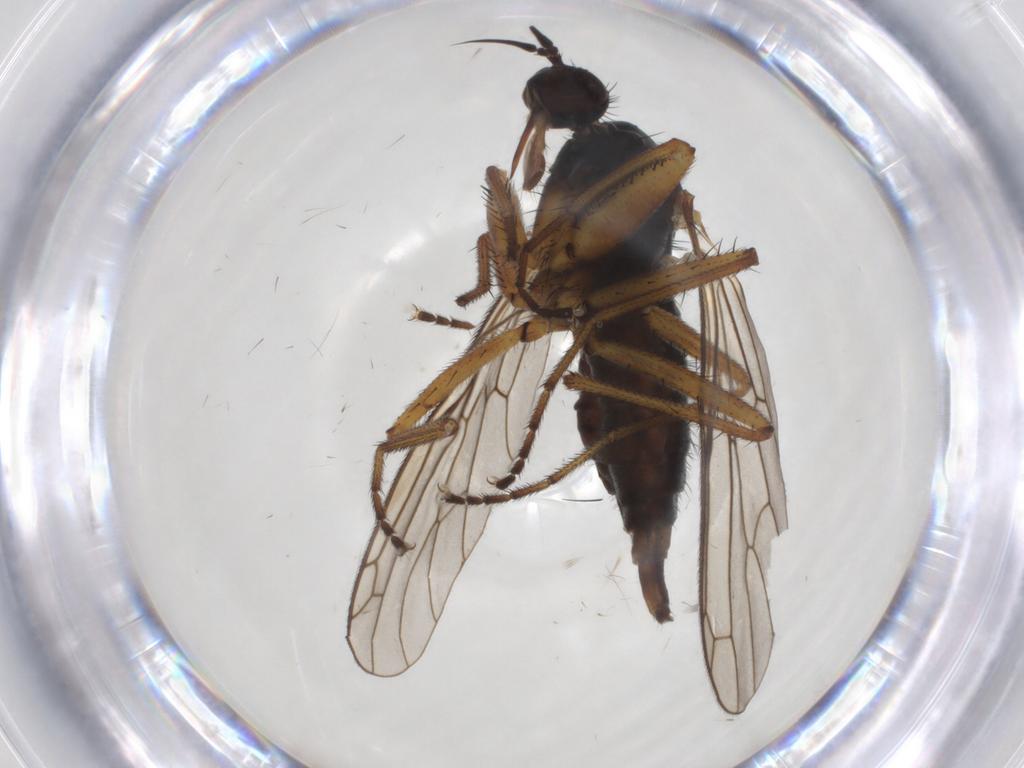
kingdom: Animalia
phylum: Arthropoda
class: Insecta
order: Diptera
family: Ceratopogonidae
